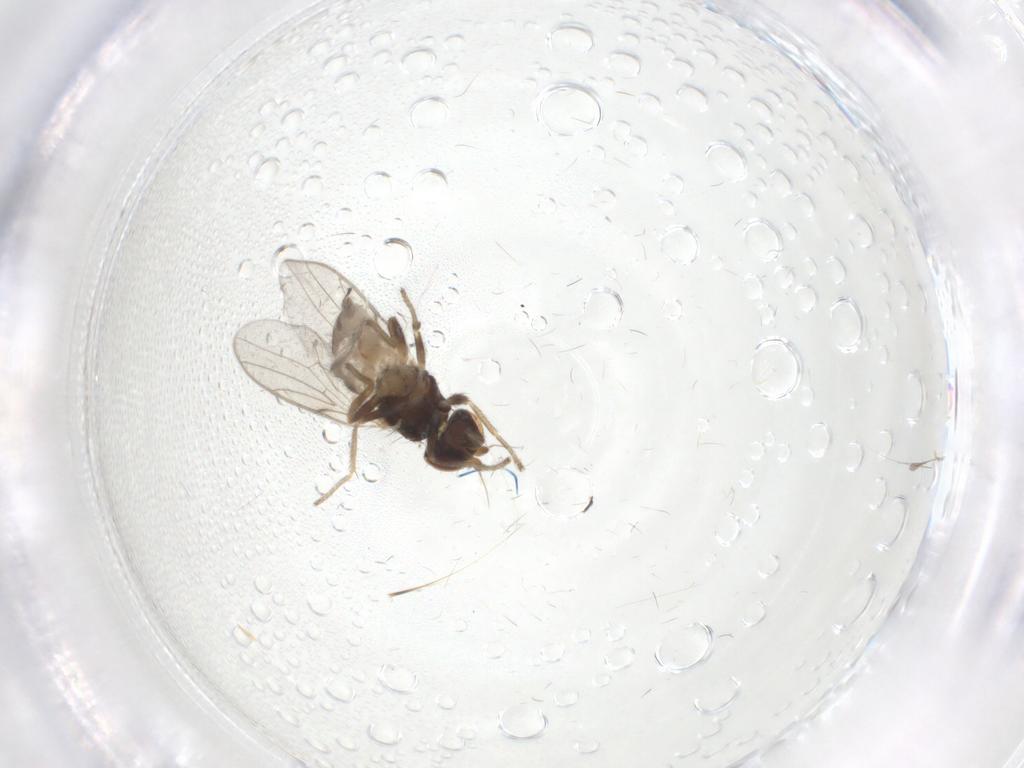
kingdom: Animalia
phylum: Arthropoda
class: Insecta
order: Diptera
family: Chloropidae
